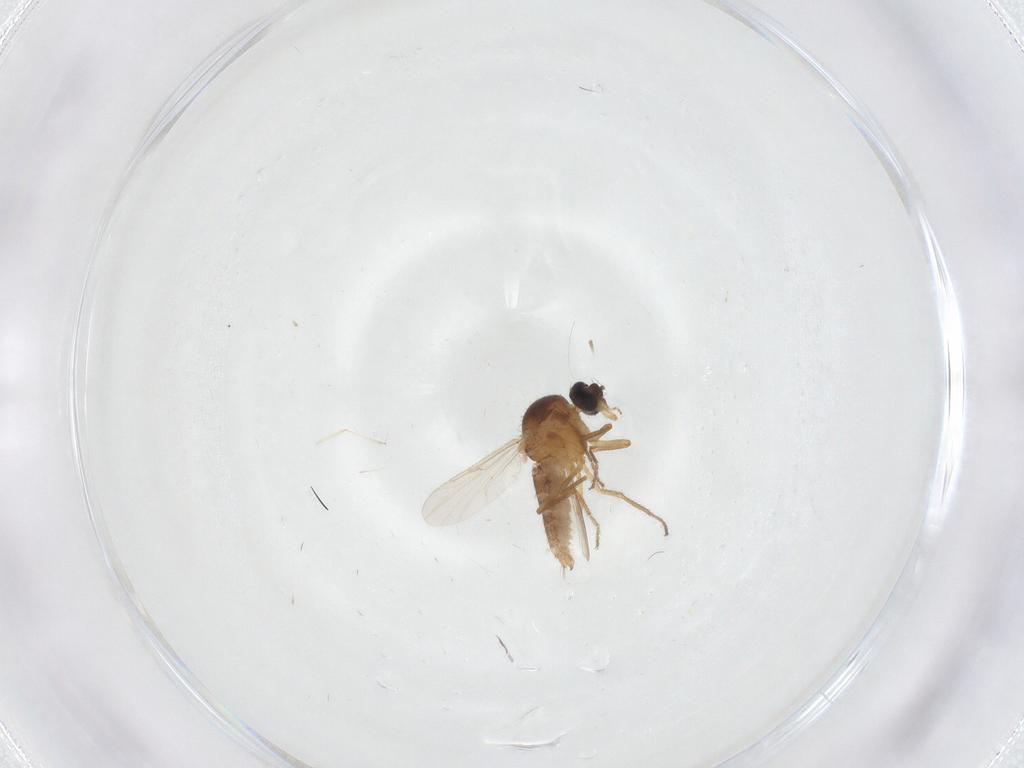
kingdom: Animalia
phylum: Arthropoda
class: Insecta
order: Diptera
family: Ceratopogonidae
